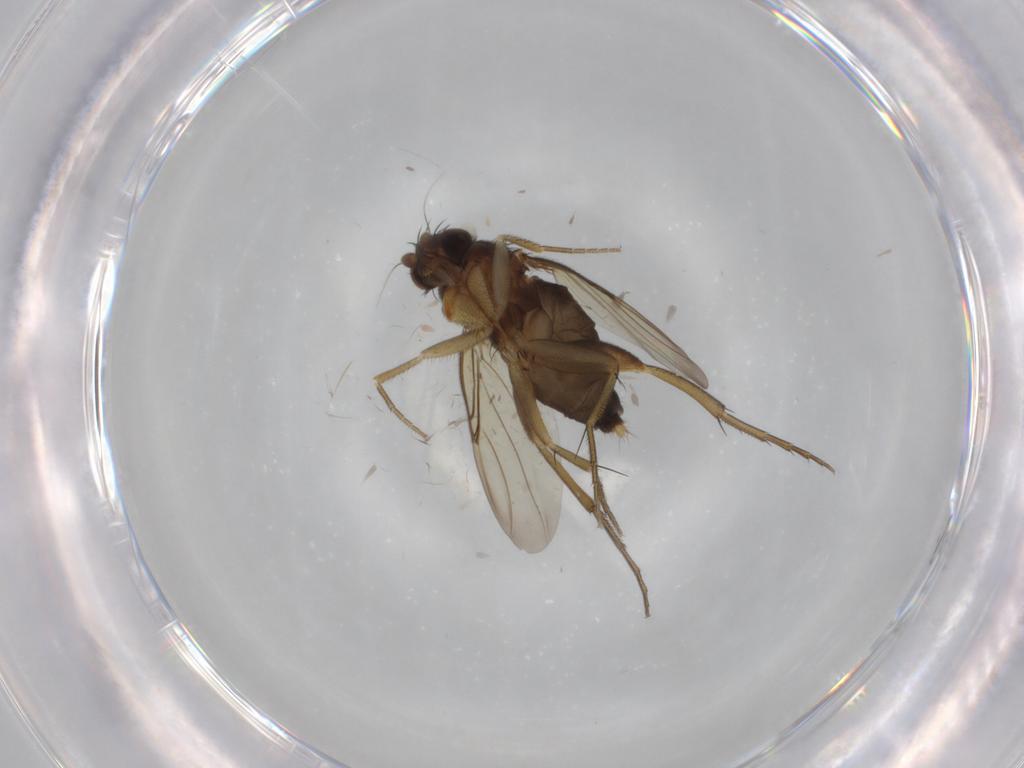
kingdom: Animalia
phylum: Arthropoda
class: Insecta
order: Diptera
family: Phoridae
